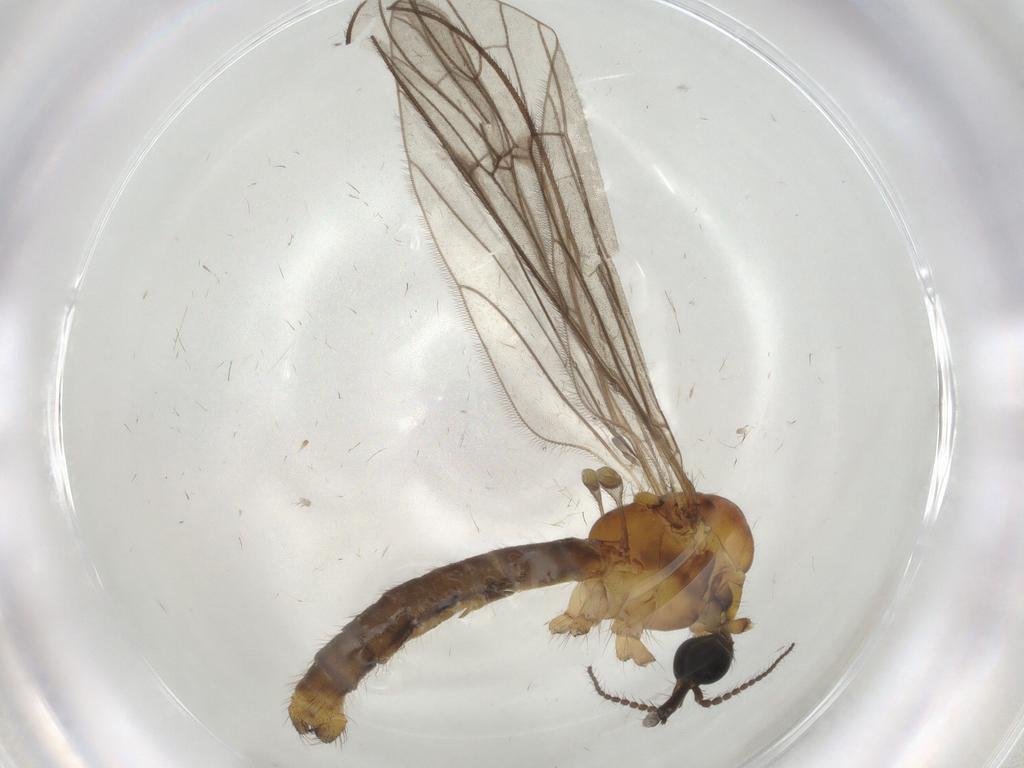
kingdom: Animalia
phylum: Arthropoda
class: Insecta
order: Diptera
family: Cecidomyiidae
